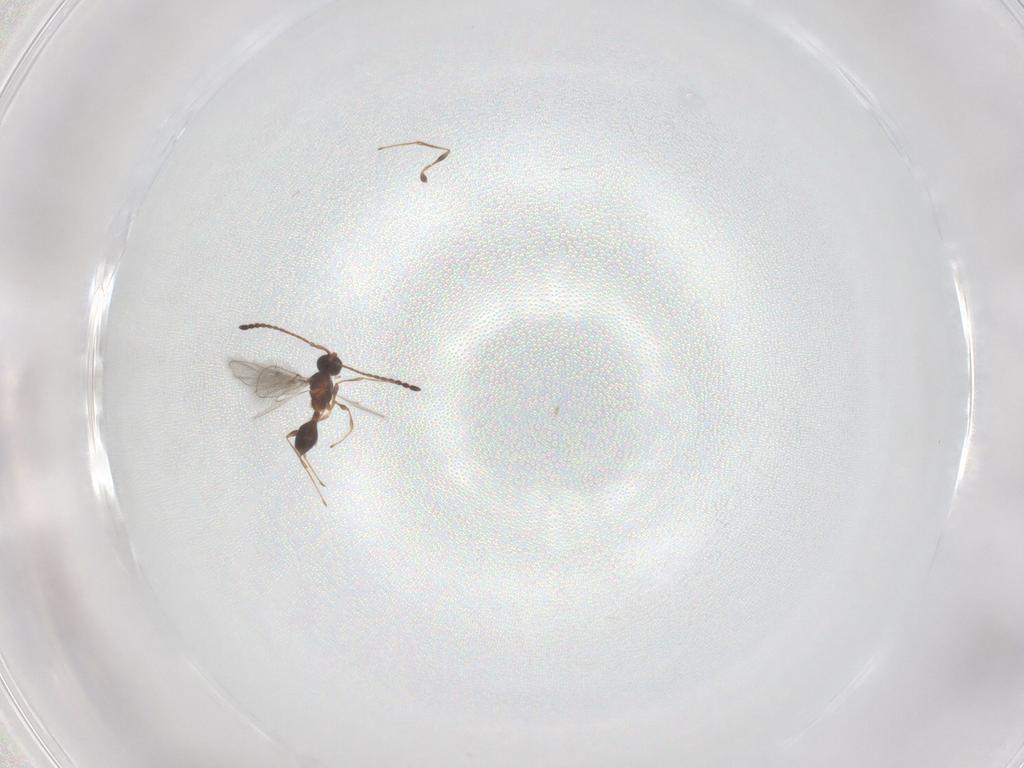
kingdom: Animalia
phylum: Arthropoda
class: Insecta
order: Hymenoptera
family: Diapriidae
